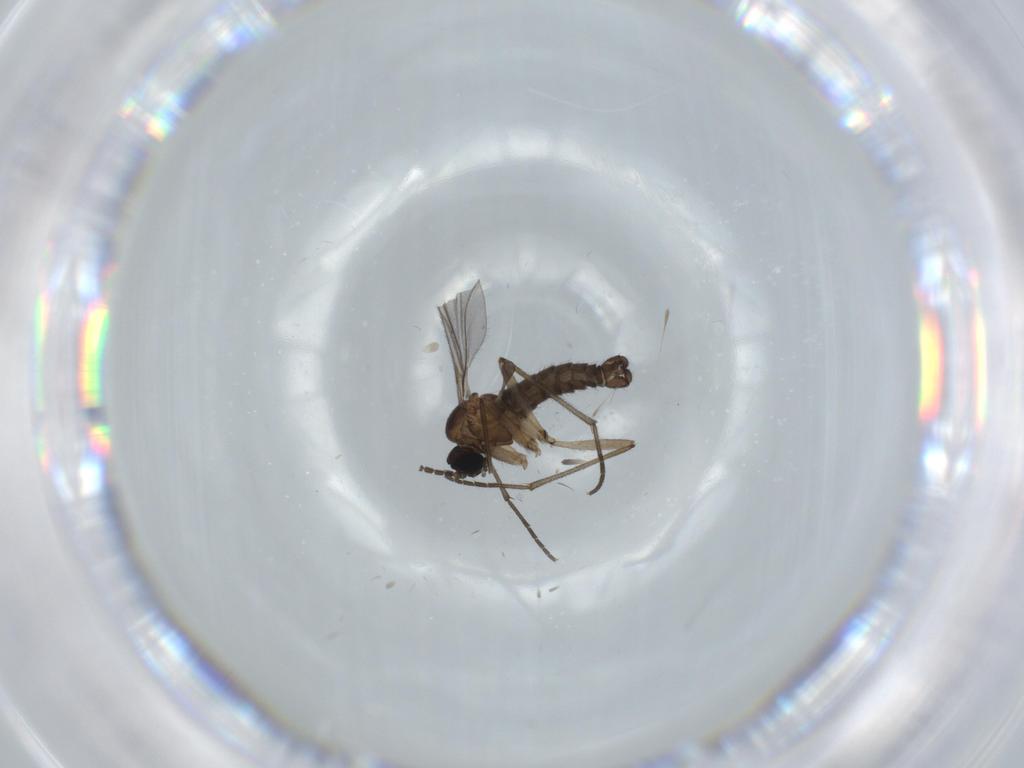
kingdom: Animalia
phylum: Arthropoda
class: Insecta
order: Diptera
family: Sciaridae
